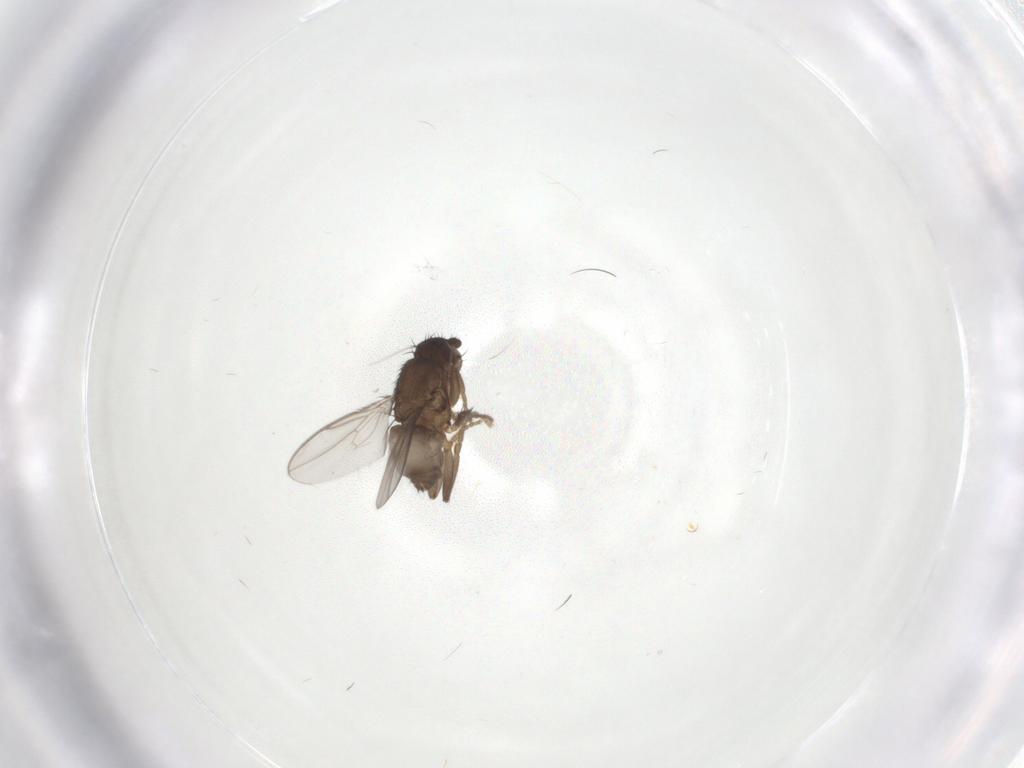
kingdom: Animalia
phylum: Arthropoda
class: Insecta
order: Diptera
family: Sphaeroceridae
